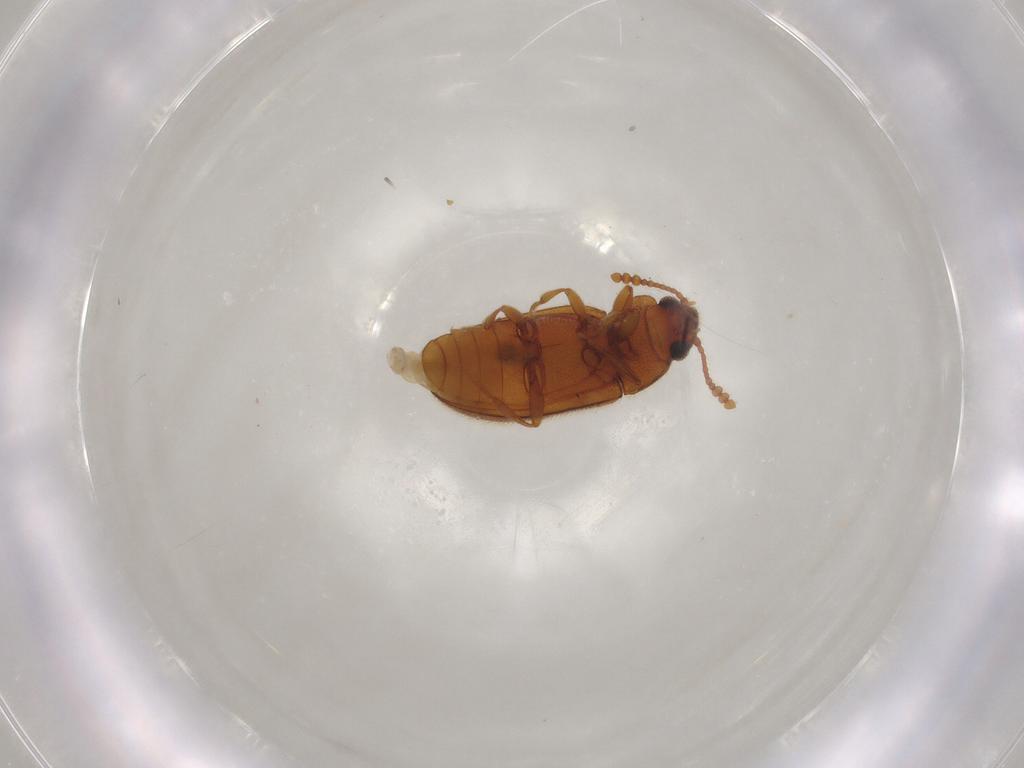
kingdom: Animalia
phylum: Arthropoda
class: Insecta
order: Coleoptera
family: Erotylidae
